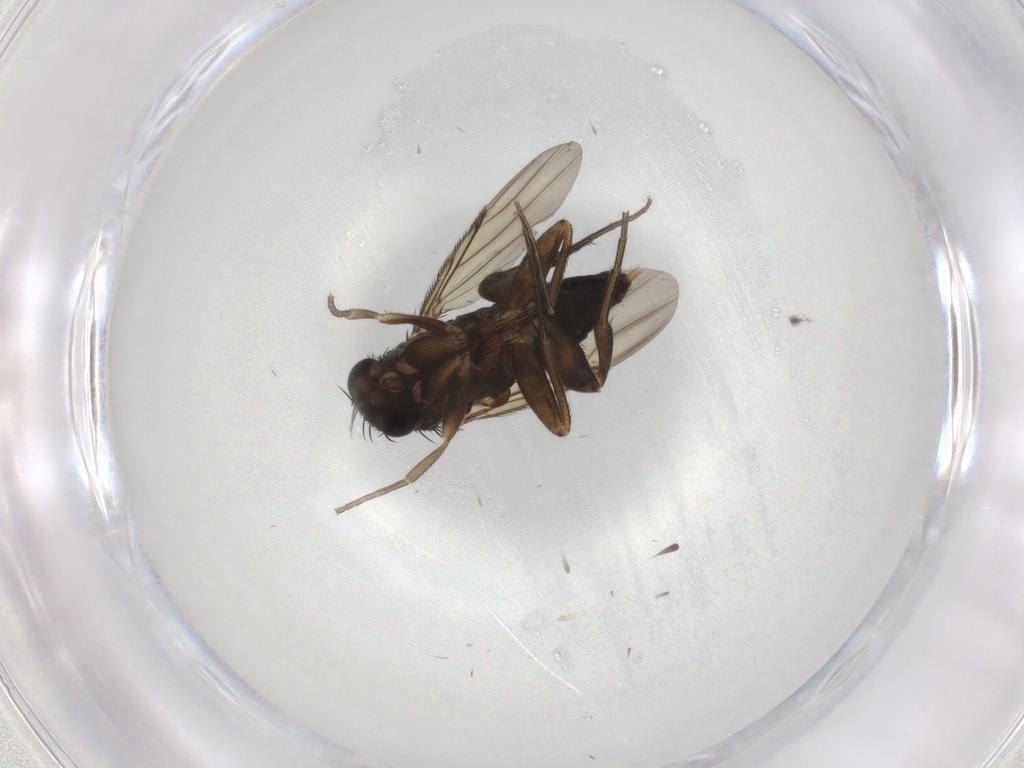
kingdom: Animalia
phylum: Arthropoda
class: Insecta
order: Diptera
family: Phoridae
